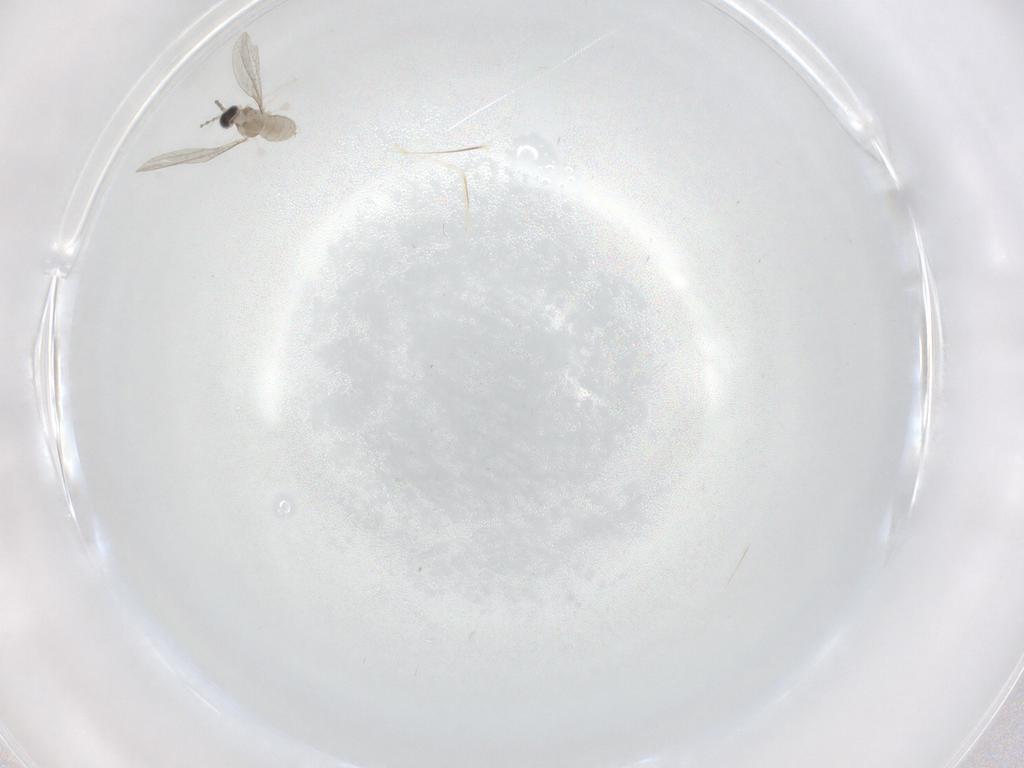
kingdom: Animalia
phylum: Arthropoda
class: Insecta
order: Diptera
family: Cecidomyiidae
